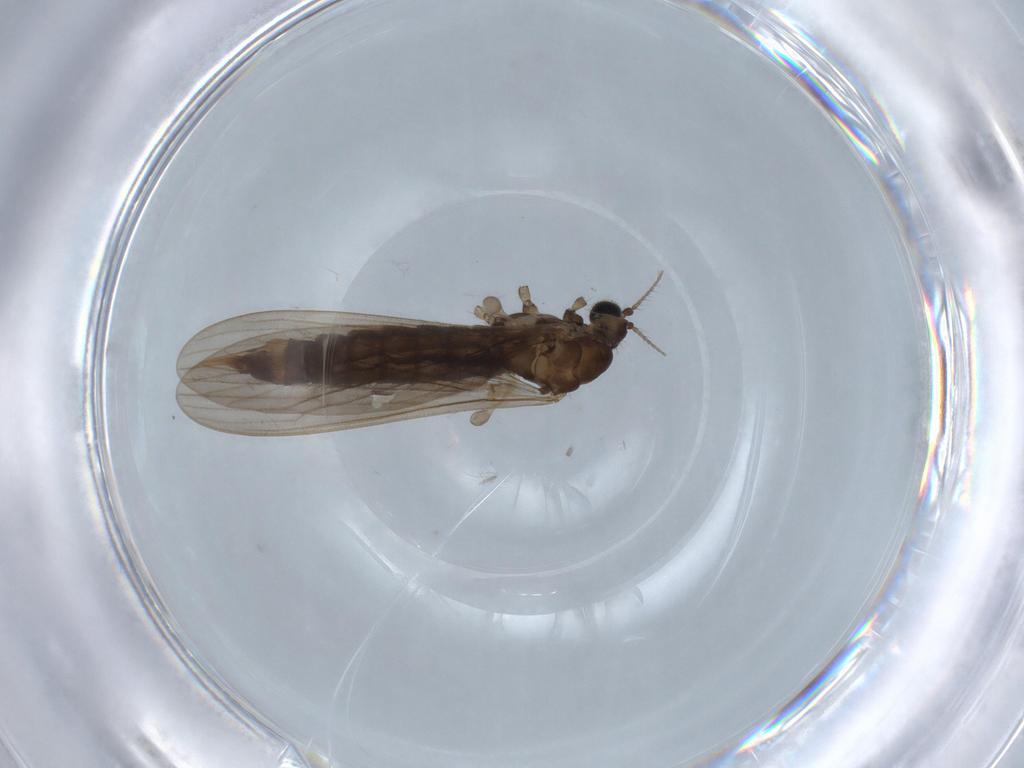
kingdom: Animalia
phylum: Arthropoda
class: Insecta
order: Diptera
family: Dolichopodidae
